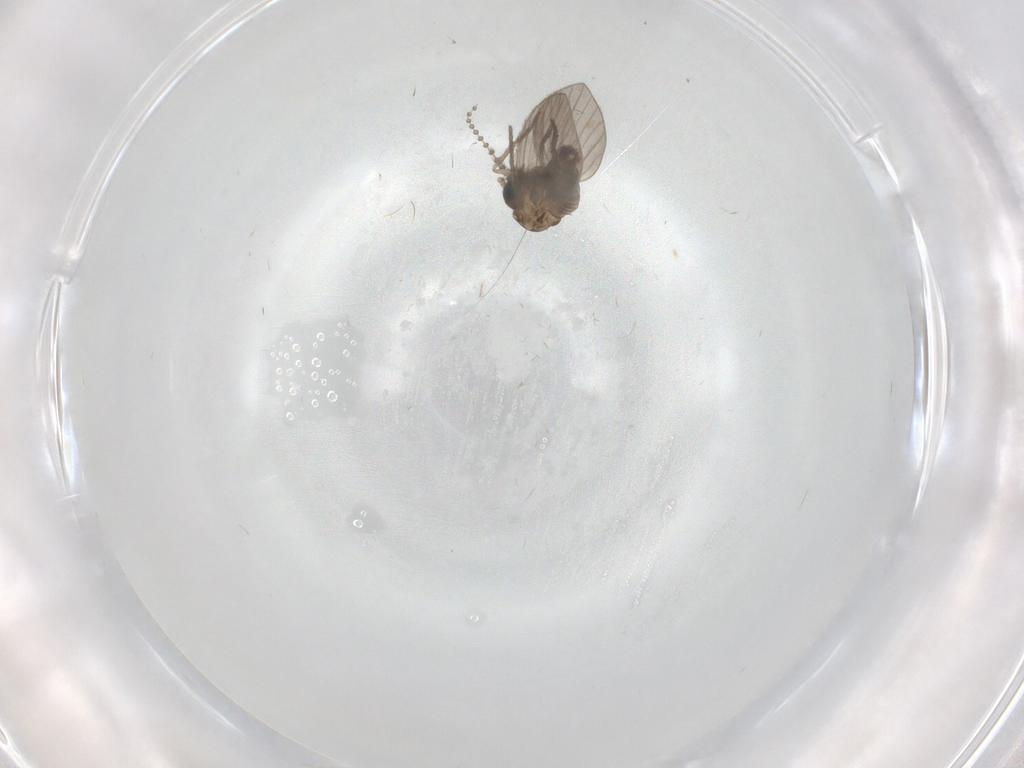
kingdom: Animalia
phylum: Arthropoda
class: Insecta
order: Diptera
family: Psychodidae
